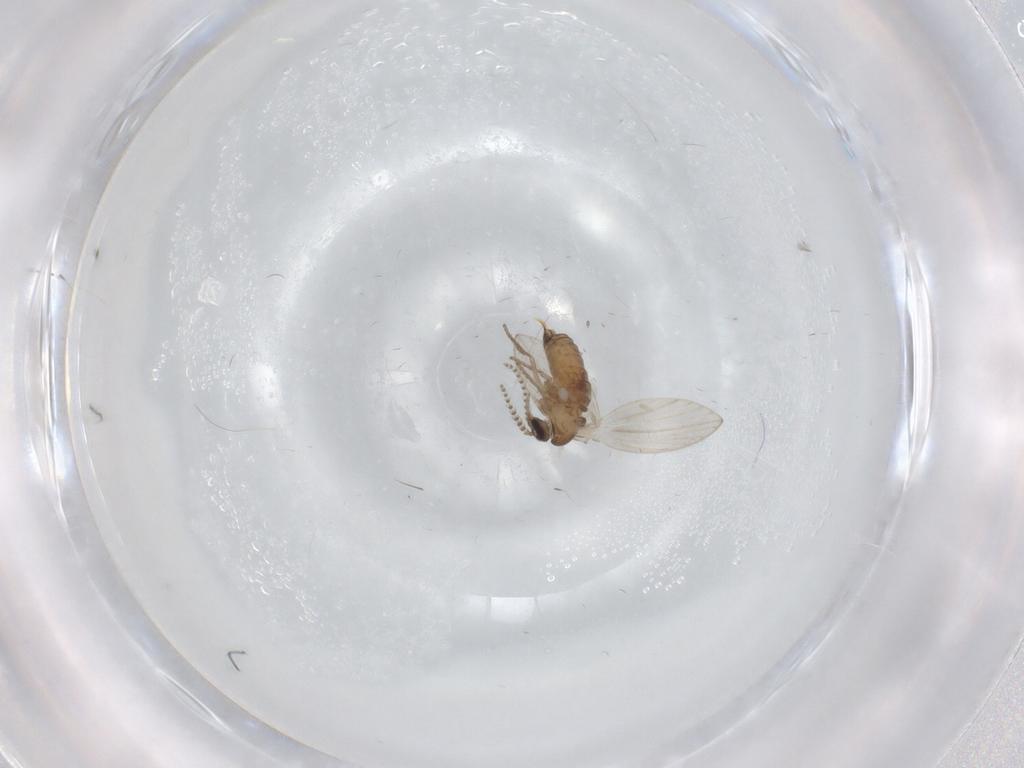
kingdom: Animalia
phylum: Arthropoda
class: Insecta
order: Diptera
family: Psychodidae
